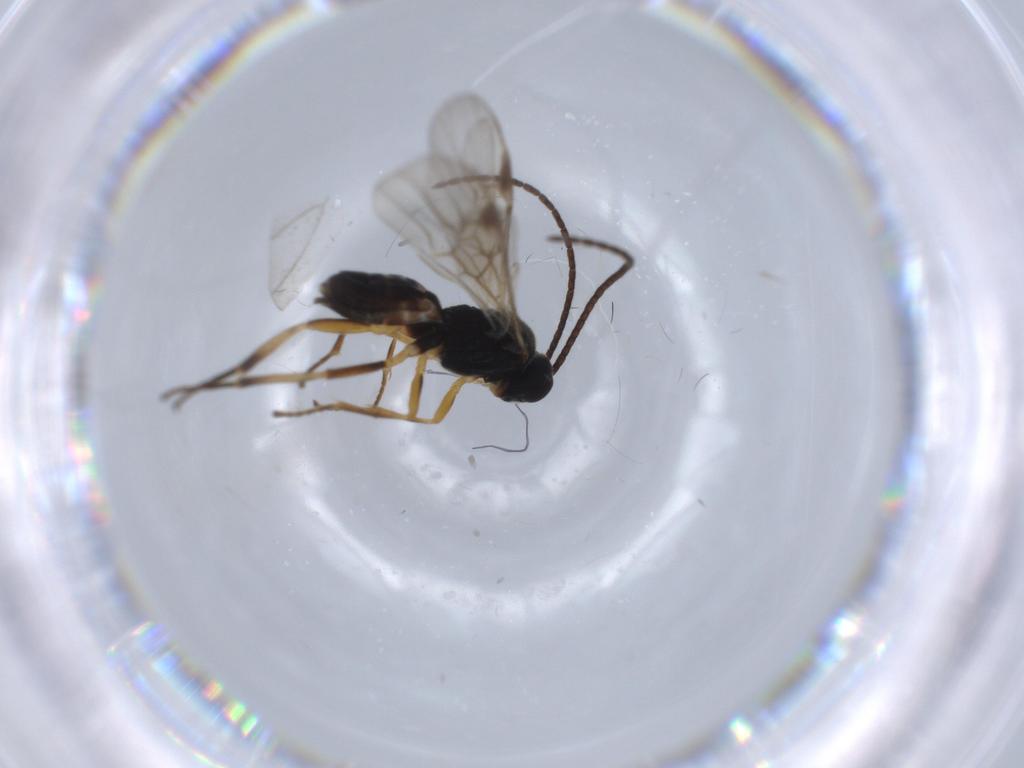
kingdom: Animalia
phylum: Arthropoda
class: Insecta
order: Hymenoptera
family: Braconidae
